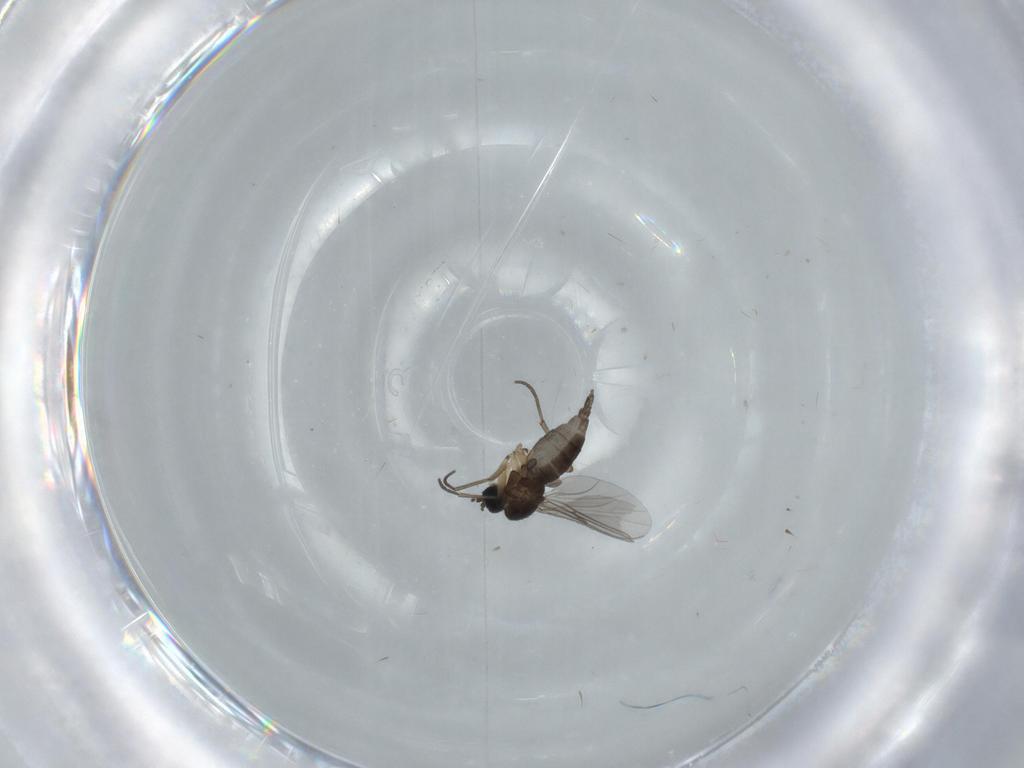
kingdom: Animalia
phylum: Arthropoda
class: Insecta
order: Diptera
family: Sciaridae
